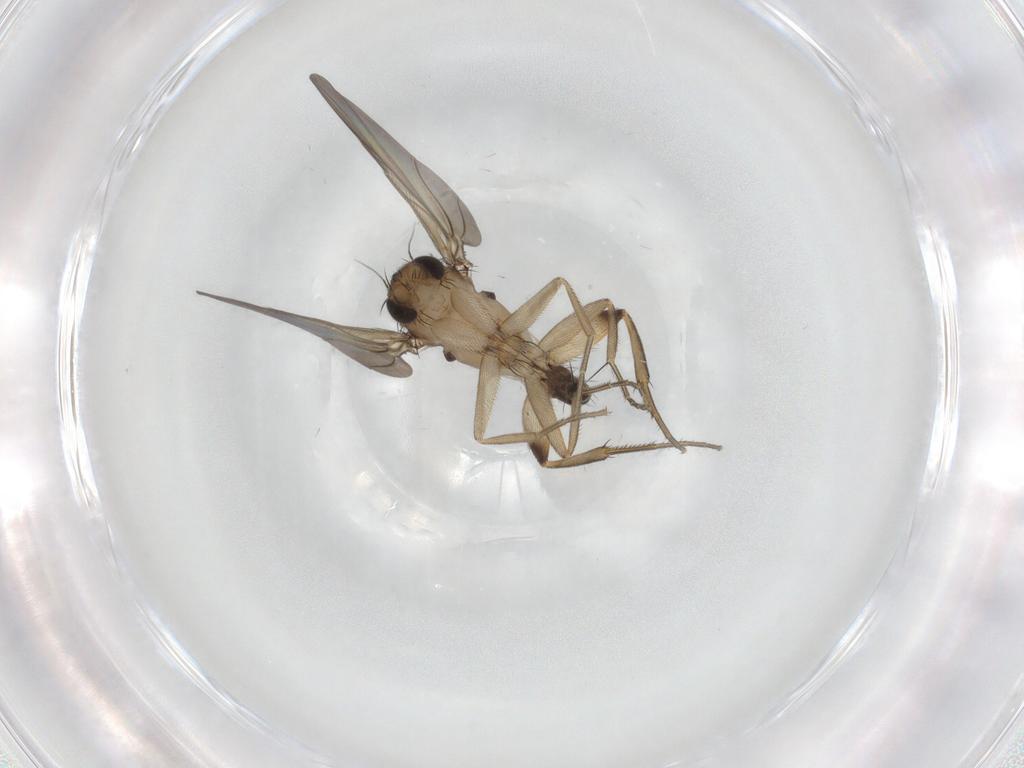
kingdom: Animalia
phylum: Arthropoda
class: Insecta
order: Diptera
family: Phoridae
